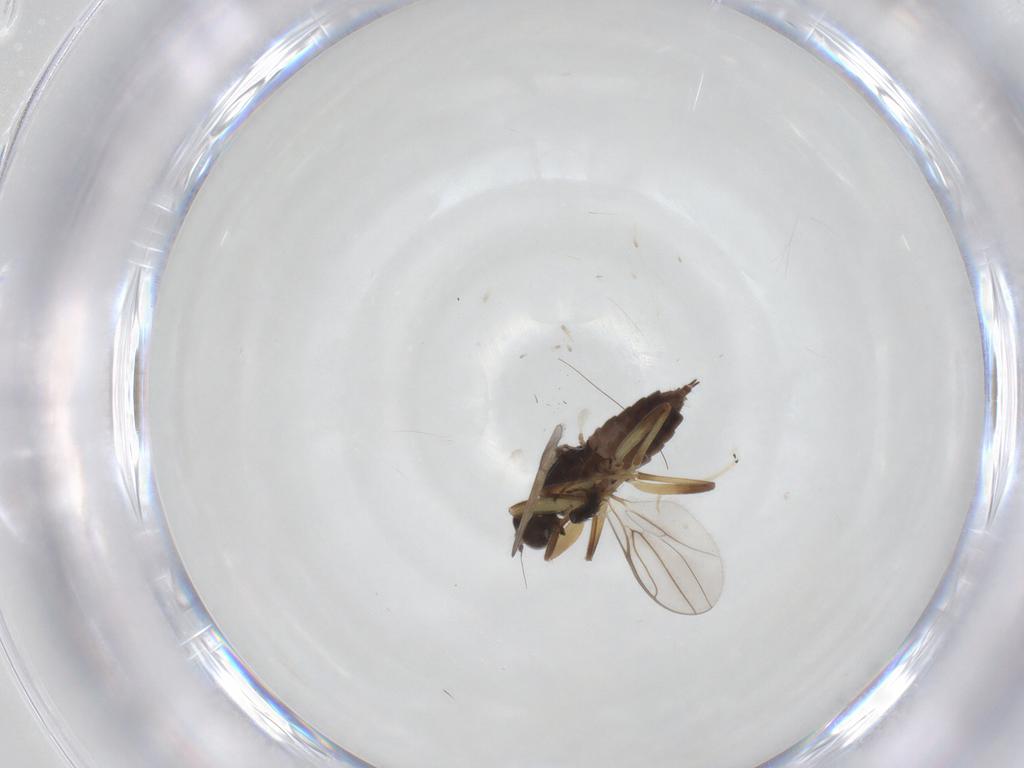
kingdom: Animalia
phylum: Arthropoda
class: Insecta
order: Diptera
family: Hybotidae
